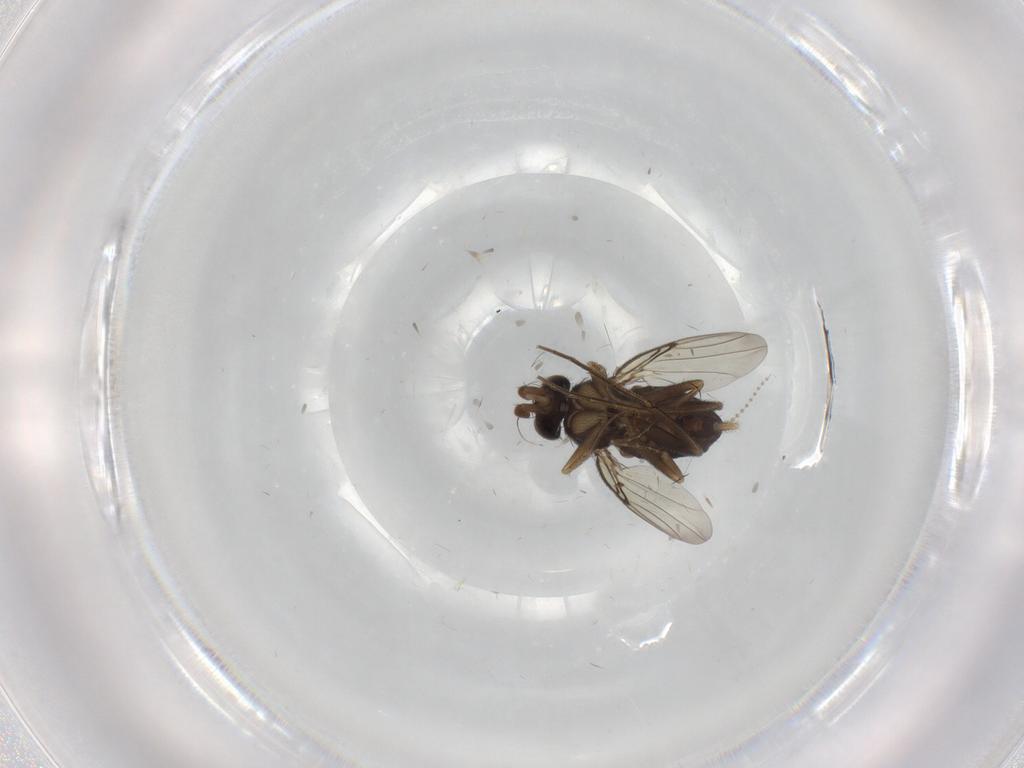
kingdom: Animalia
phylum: Arthropoda
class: Insecta
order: Diptera
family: Phoridae
